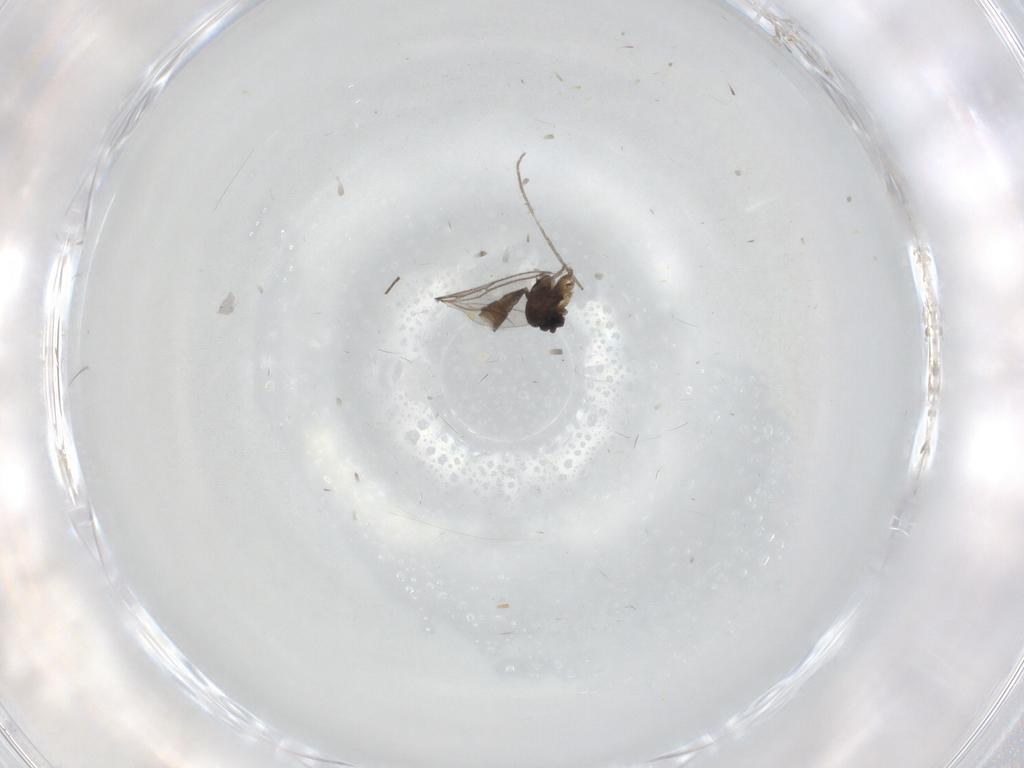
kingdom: Animalia
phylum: Arthropoda
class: Insecta
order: Diptera
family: Sciaridae
